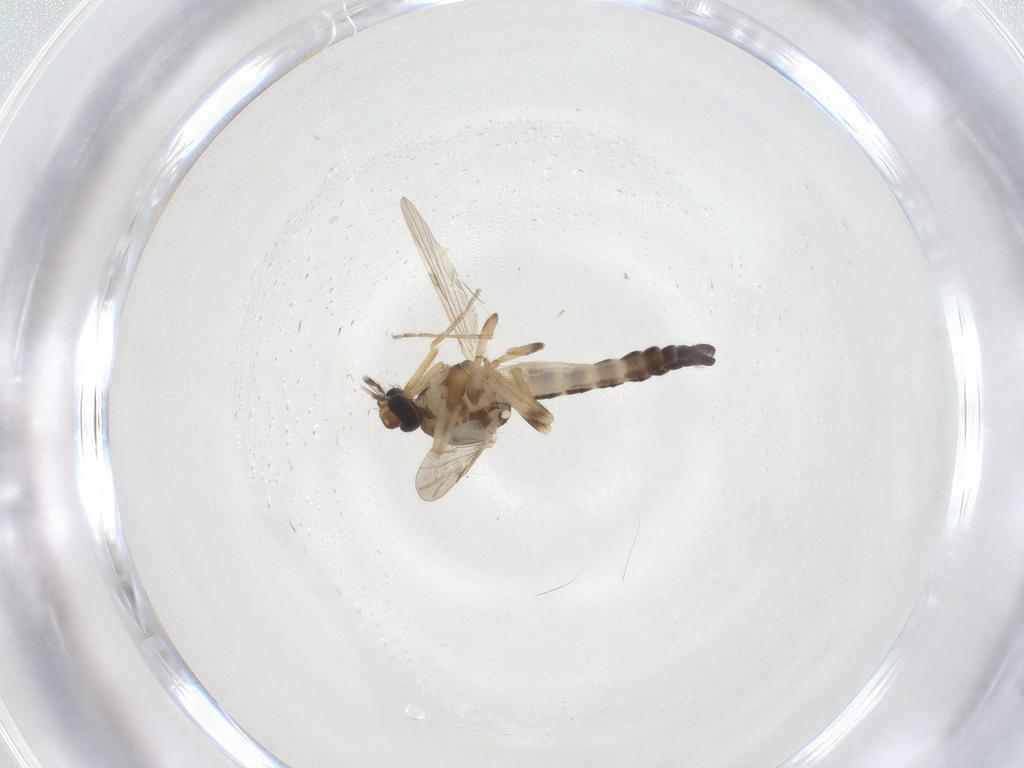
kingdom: Animalia
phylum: Arthropoda
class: Insecta
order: Diptera
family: Ceratopogonidae
